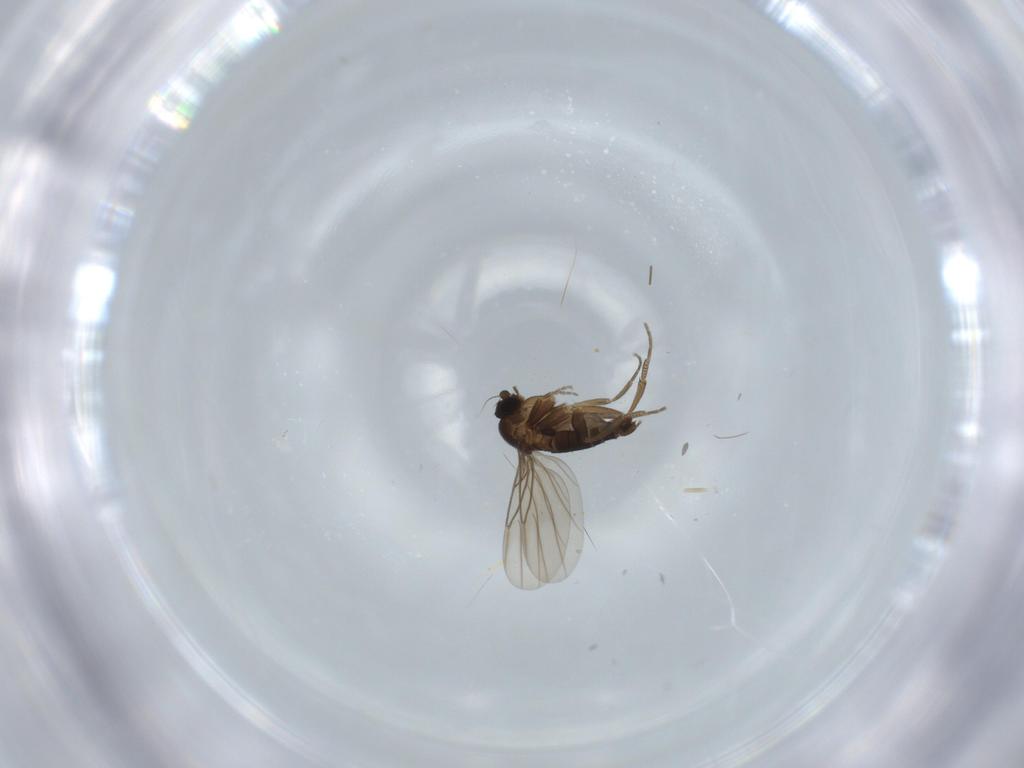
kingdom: Animalia
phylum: Arthropoda
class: Insecta
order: Diptera
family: Phoridae
